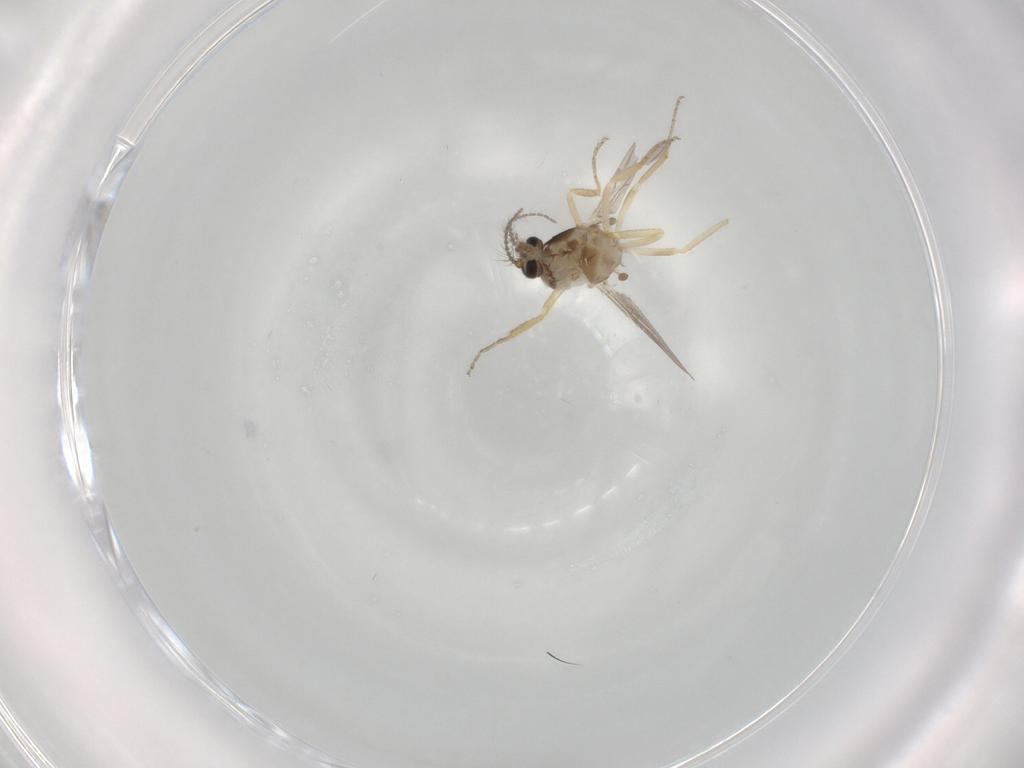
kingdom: Animalia
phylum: Arthropoda
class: Insecta
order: Diptera
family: Ceratopogonidae
